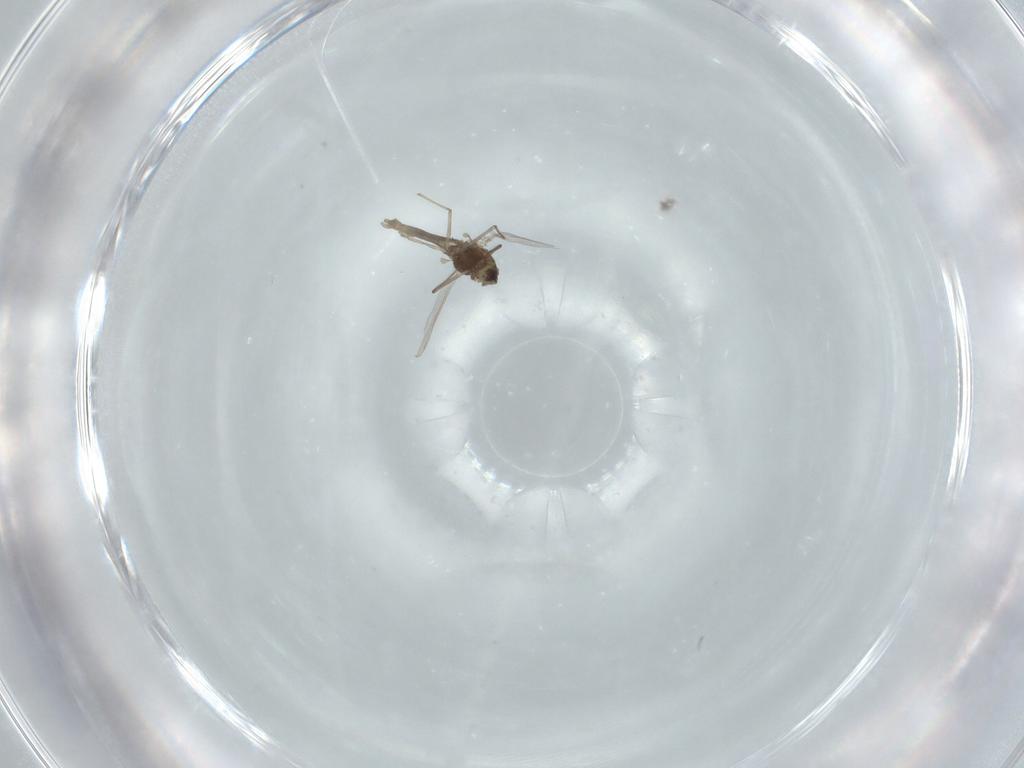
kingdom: Animalia
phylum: Arthropoda
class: Insecta
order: Diptera
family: Chironomidae
